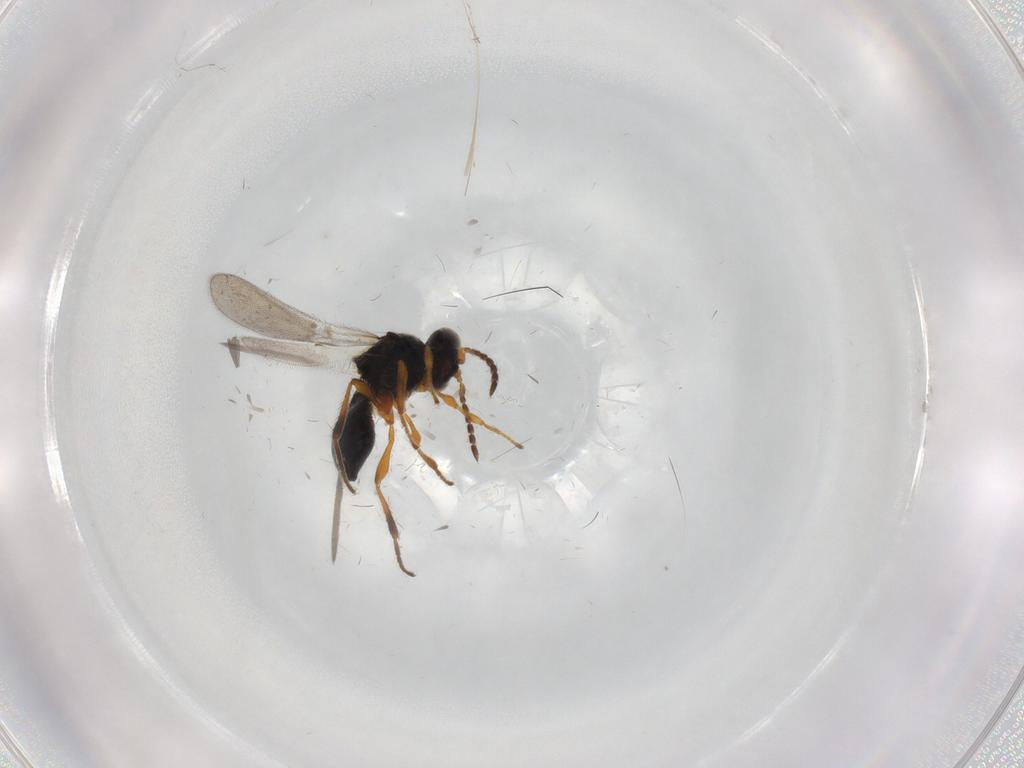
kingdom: Animalia
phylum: Arthropoda
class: Insecta
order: Hymenoptera
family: Platygastridae
